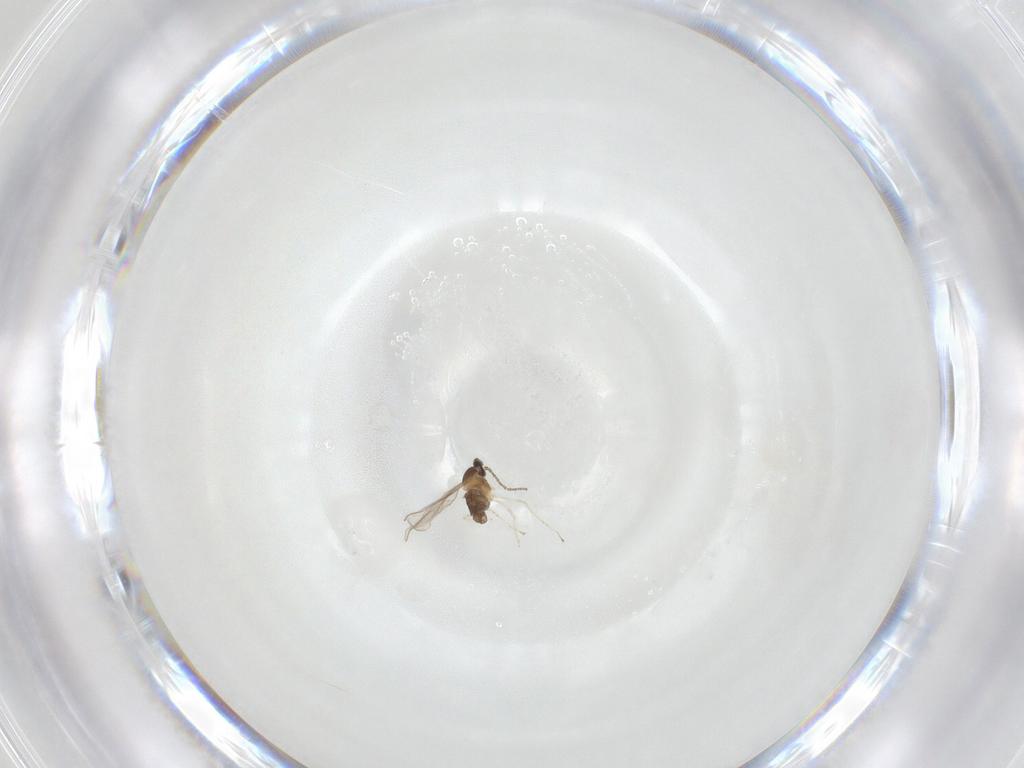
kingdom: Animalia
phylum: Arthropoda
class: Insecta
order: Diptera
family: Cecidomyiidae
